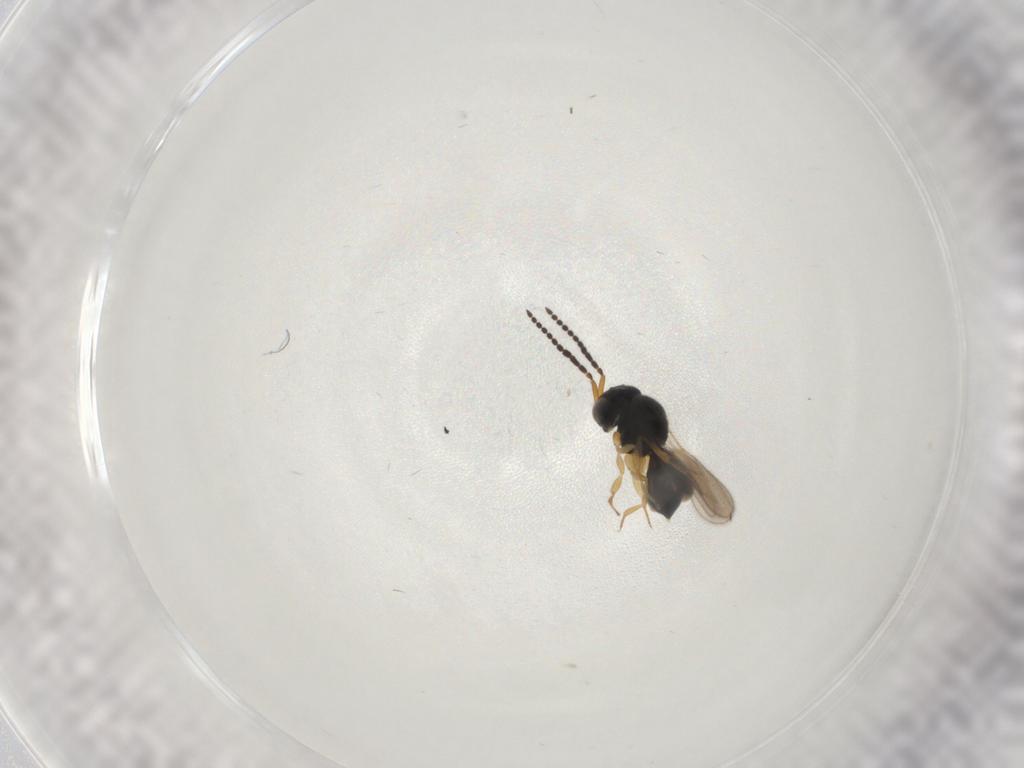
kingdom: Animalia
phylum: Arthropoda
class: Insecta
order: Hymenoptera
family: Scelionidae
